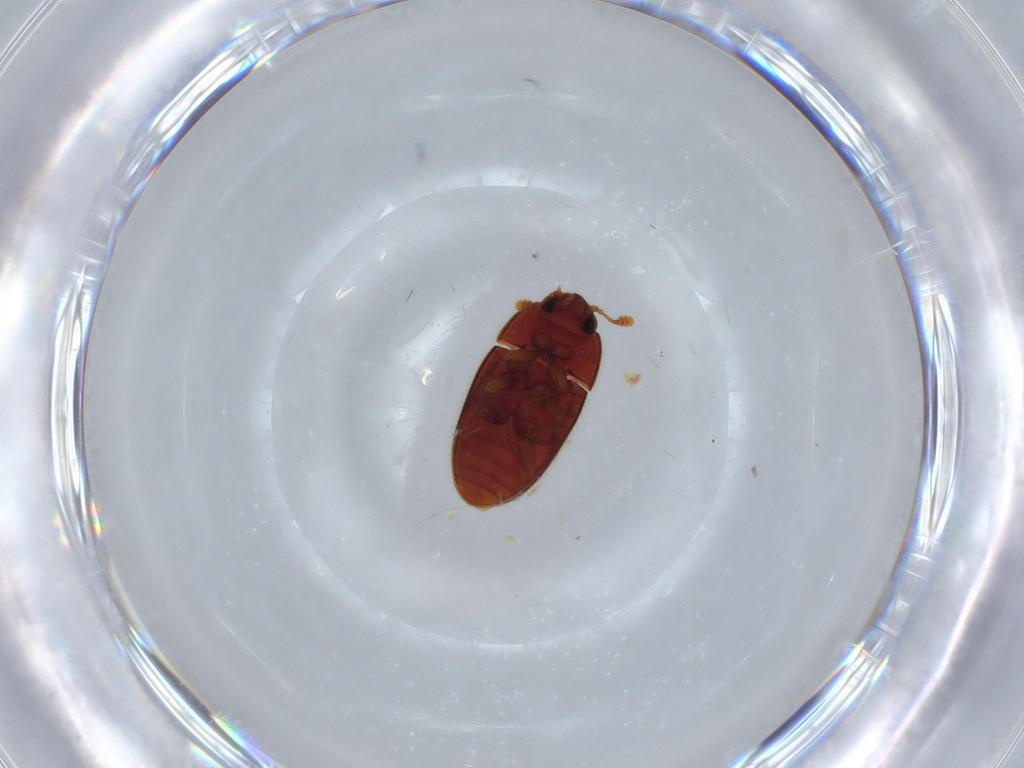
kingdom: Animalia
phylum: Arthropoda
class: Insecta
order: Coleoptera
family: Biphyllidae
